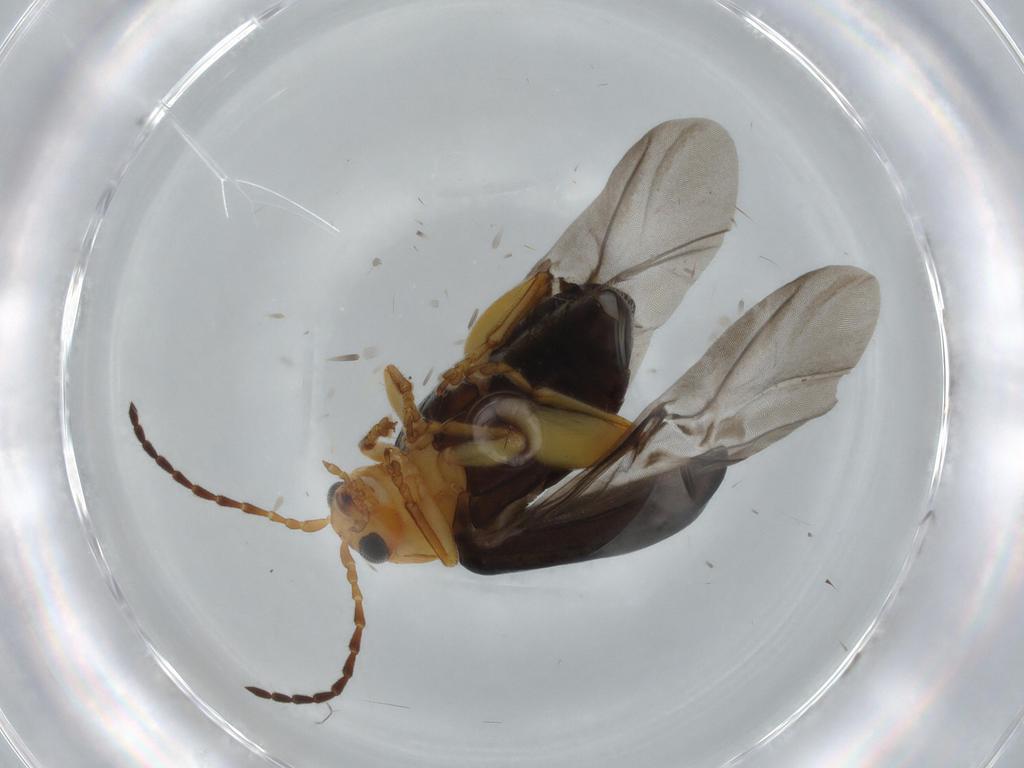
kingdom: Animalia
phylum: Arthropoda
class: Insecta
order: Coleoptera
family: Chrysomelidae
